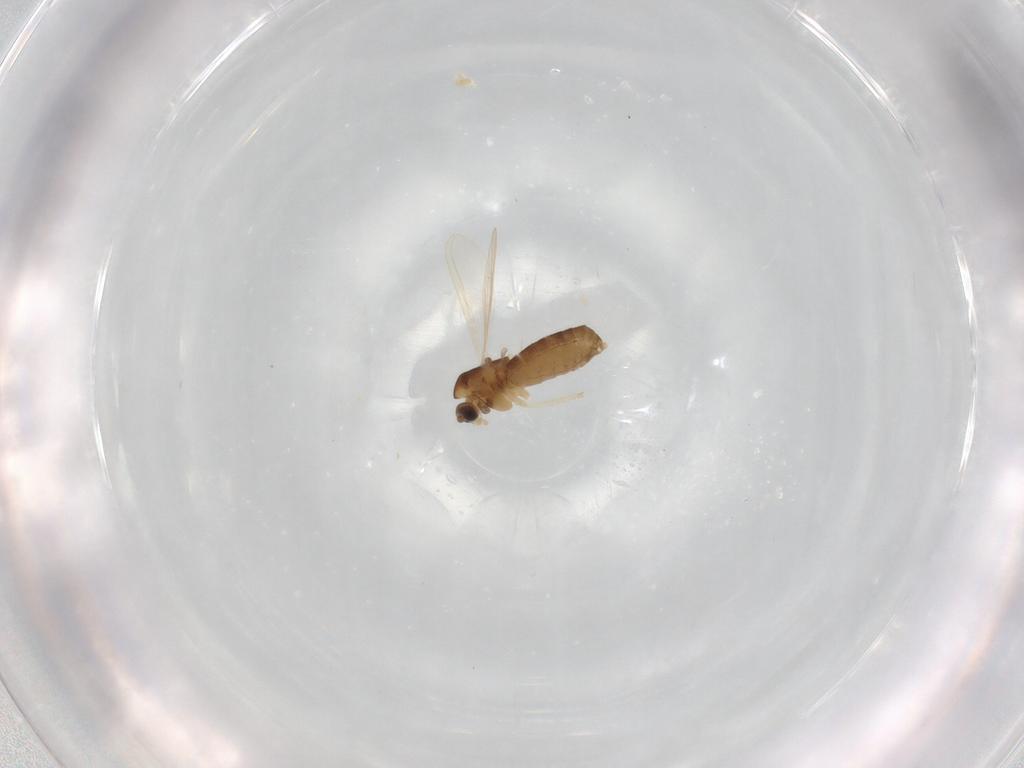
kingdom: Animalia
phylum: Arthropoda
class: Insecta
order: Diptera
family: Chironomidae
